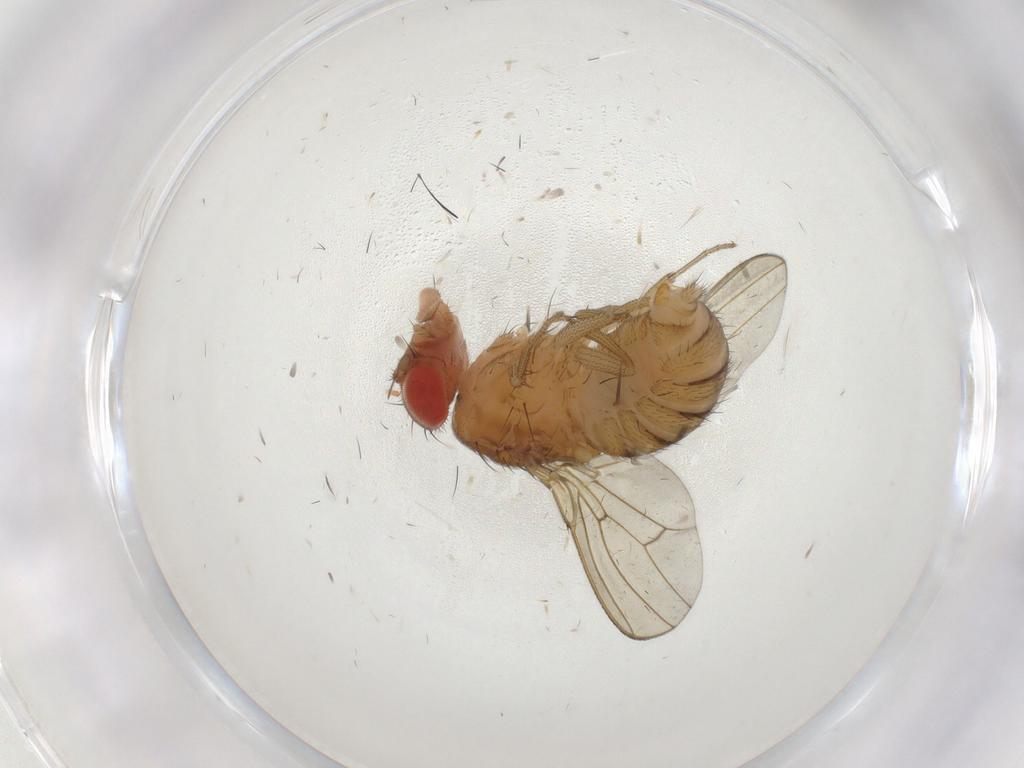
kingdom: Animalia
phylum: Arthropoda
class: Insecta
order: Diptera
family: Drosophilidae
